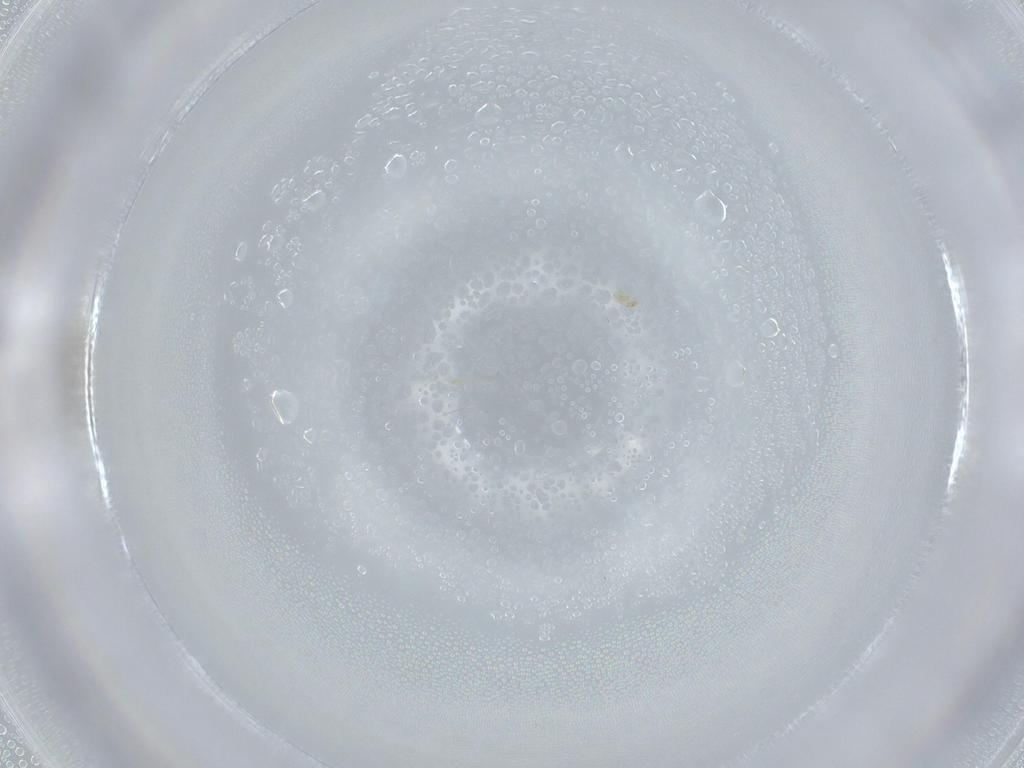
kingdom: Animalia
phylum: Arthropoda
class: Insecta
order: Diptera
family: Cecidomyiidae
